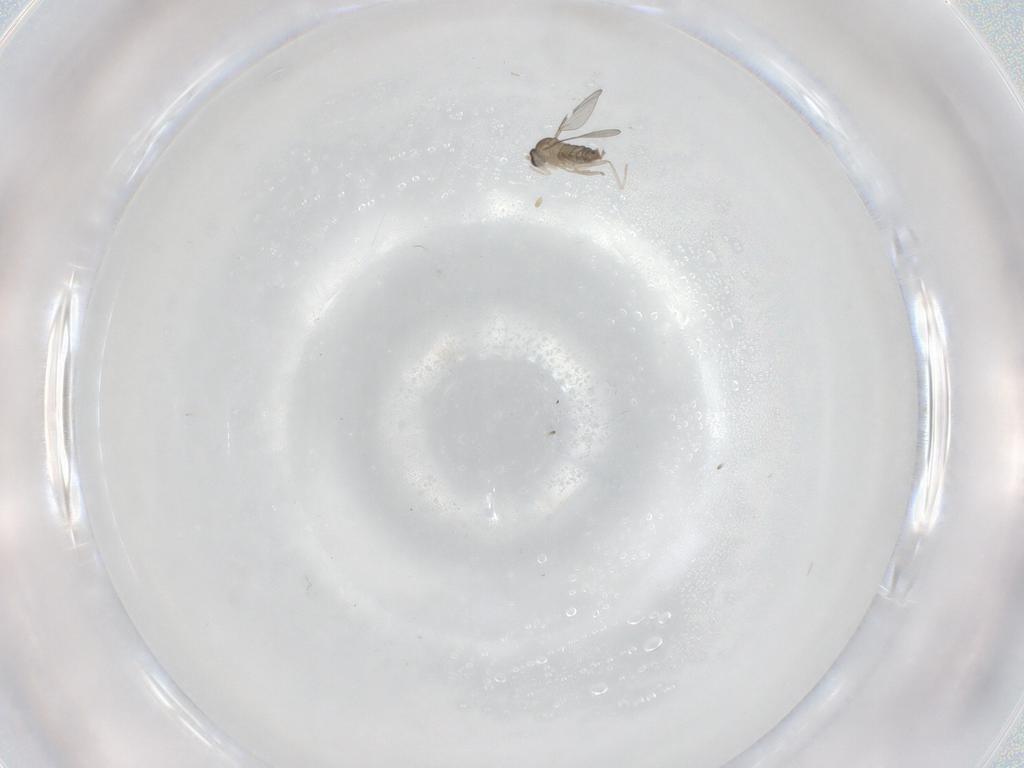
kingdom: Animalia
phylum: Arthropoda
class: Insecta
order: Diptera
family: Cecidomyiidae
